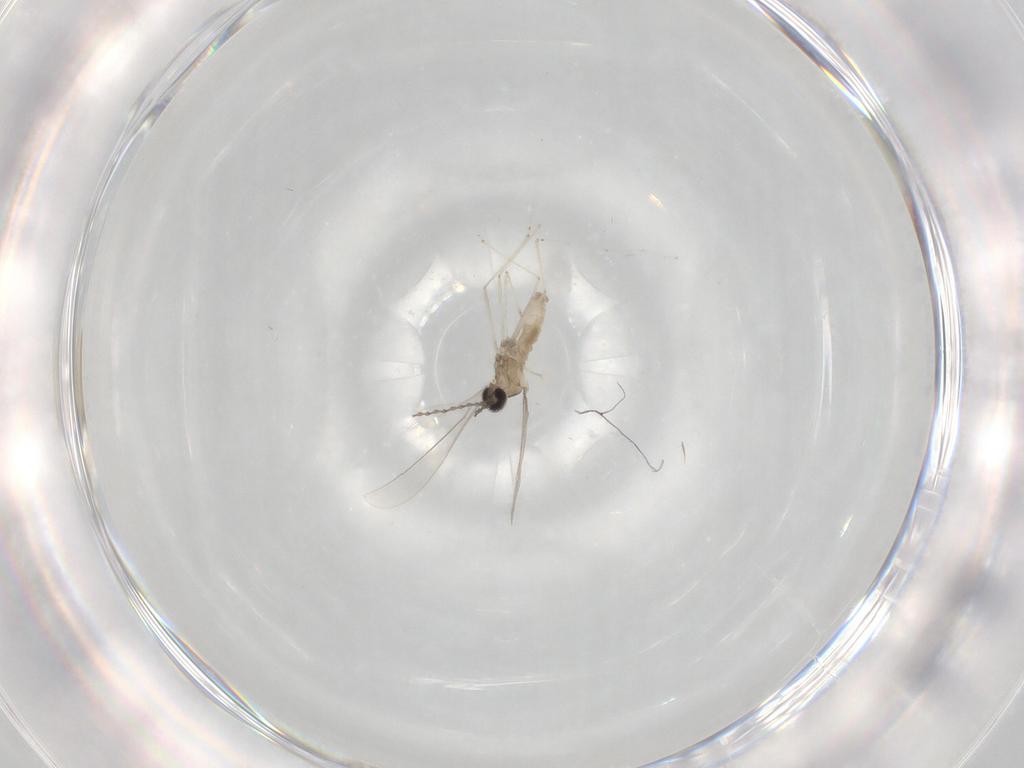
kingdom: Animalia
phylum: Arthropoda
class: Insecta
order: Diptera
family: Cecidomyiidae
